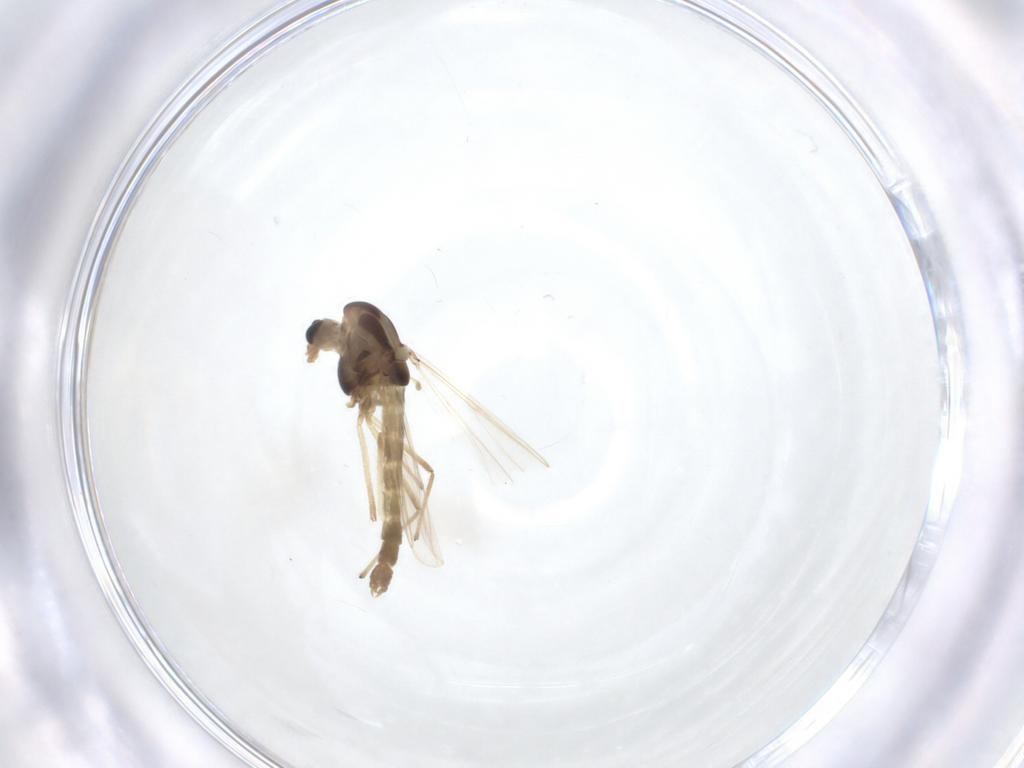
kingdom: Animalia
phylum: Arthropoda
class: Insecta
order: Diptera
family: Chironomidae
